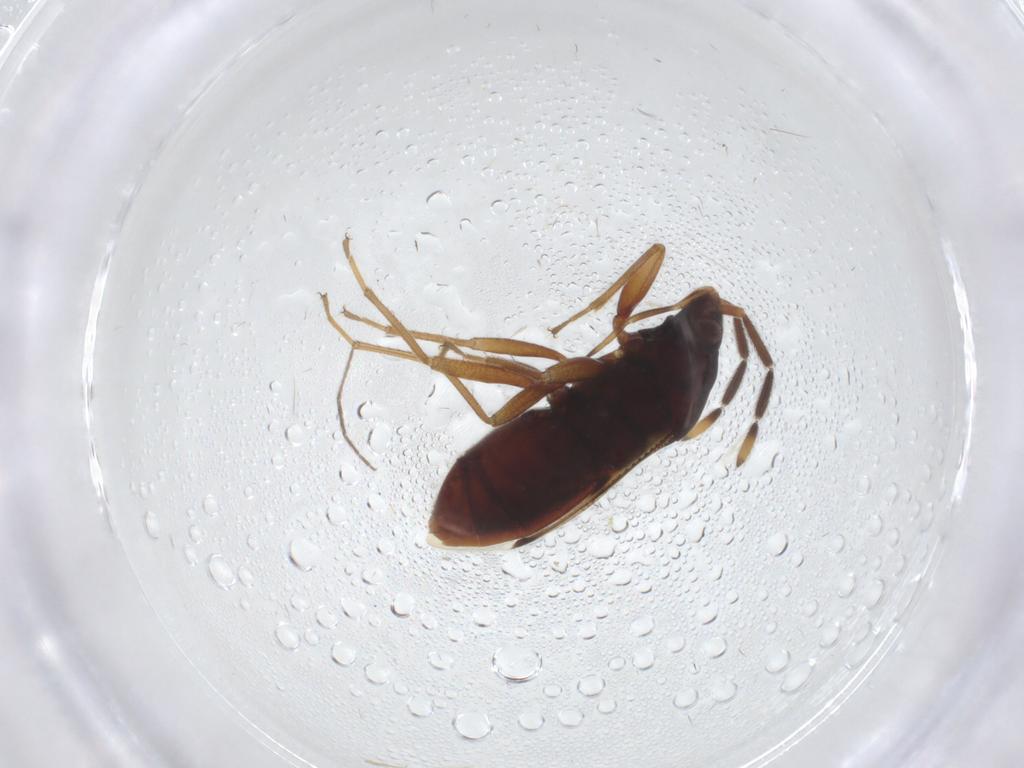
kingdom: Animalia
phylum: Arthropoda
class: Insecta
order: Hemiptera
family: Rhyparochromidae
